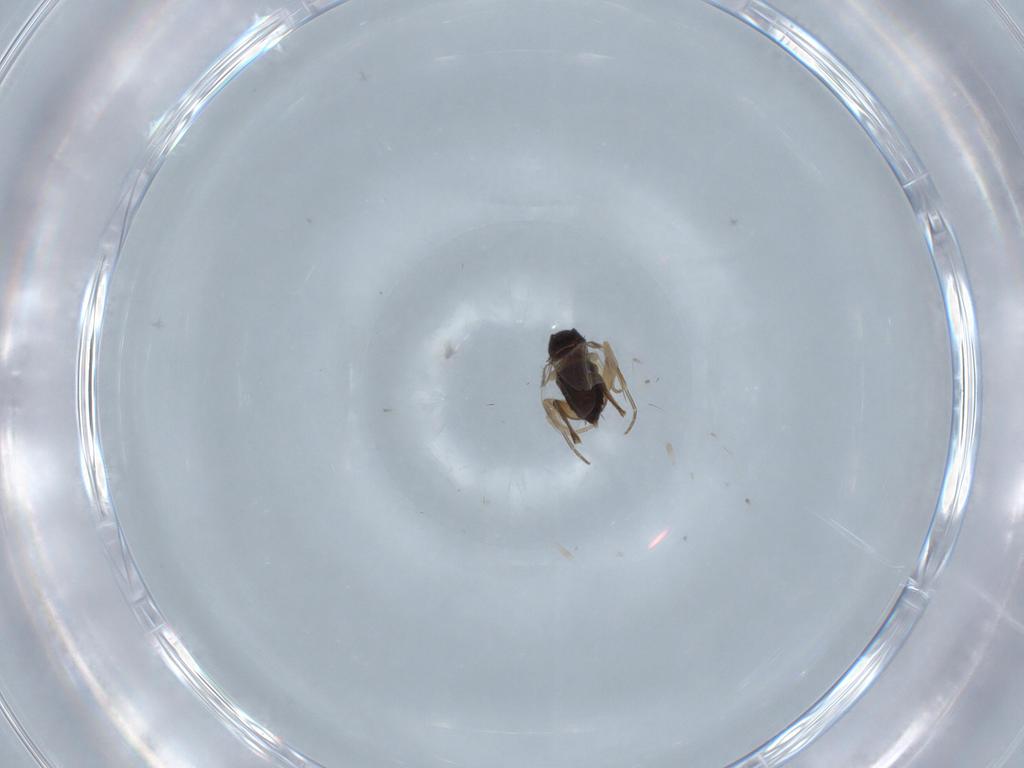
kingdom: Animalia
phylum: Arthropoda
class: Insecta
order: Diptera
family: Phoridae
